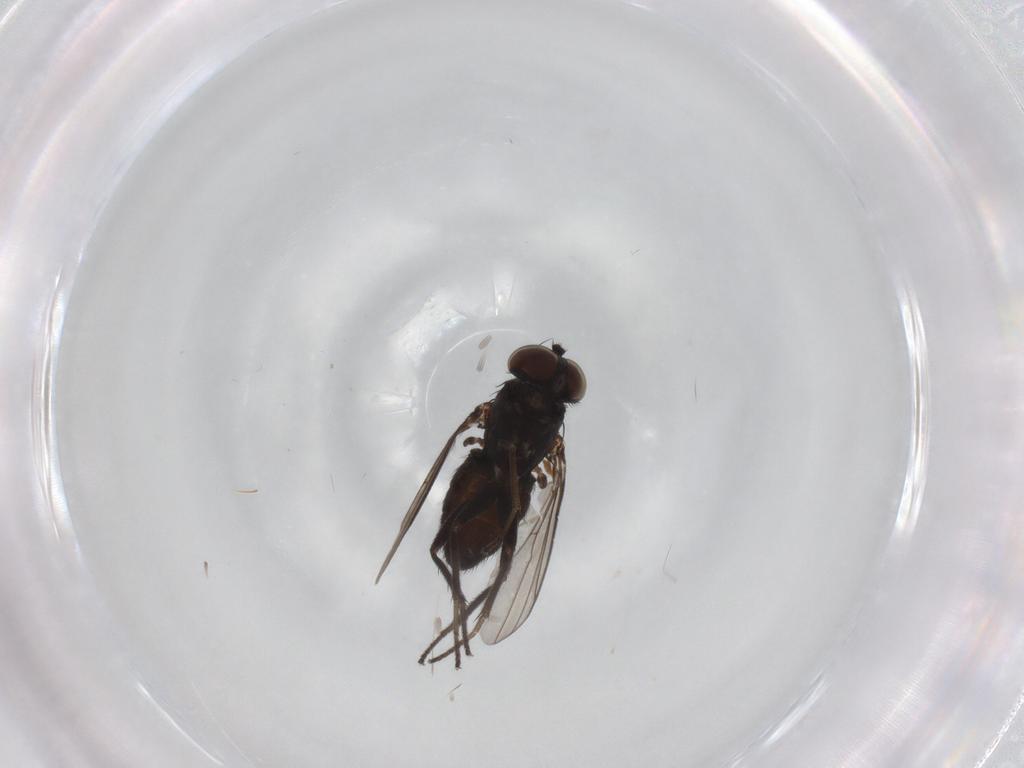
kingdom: Animalia
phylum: Arthropoda
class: Insecta
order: Diptera
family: Dolichopodidae
